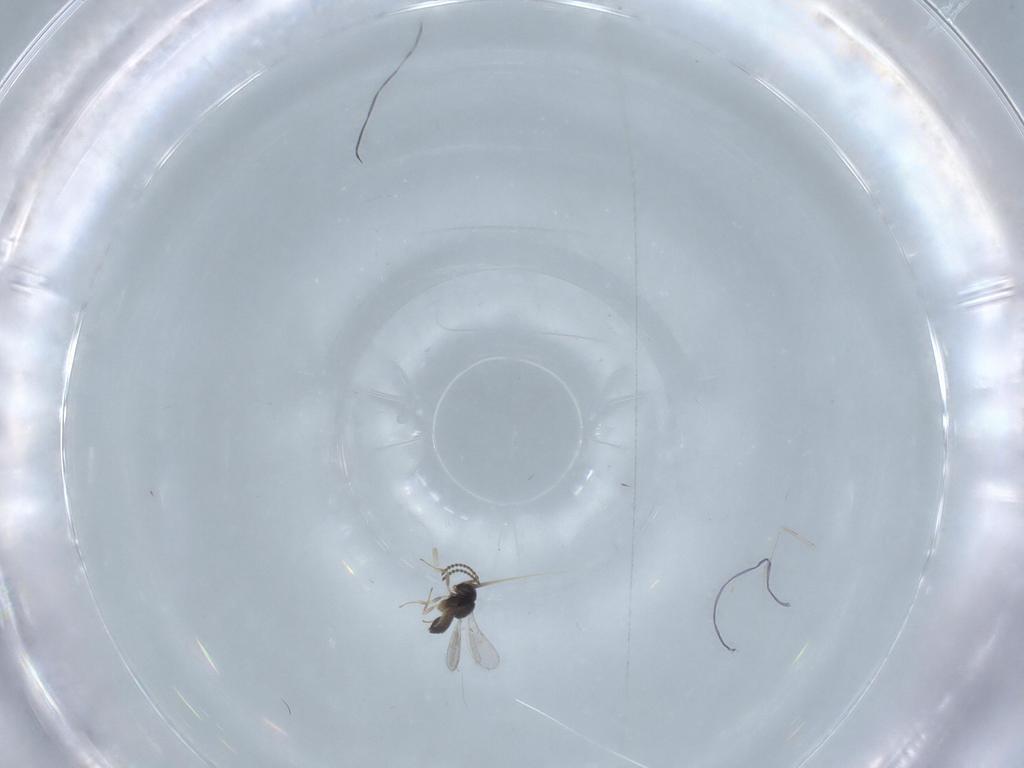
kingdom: Animalia
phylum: Arthropoda
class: Insecta
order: Hymenoptera
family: Scelionidae
